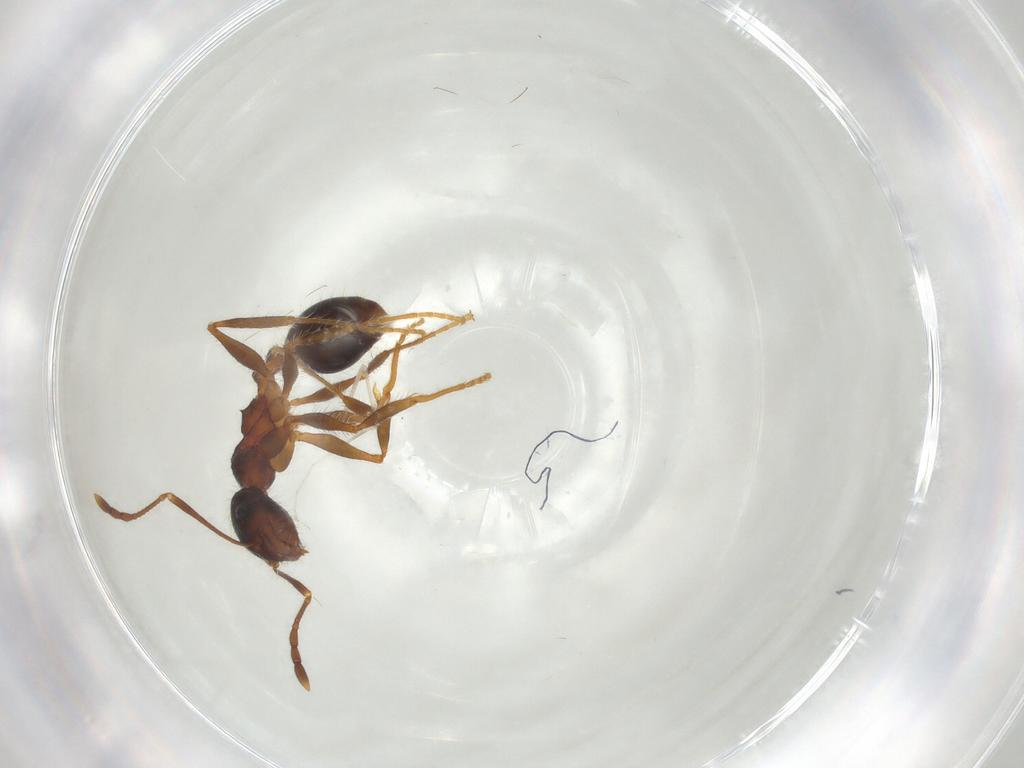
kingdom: Animalia
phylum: Arthropoda
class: Insecta
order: Hymenoptera
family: Formicidae
